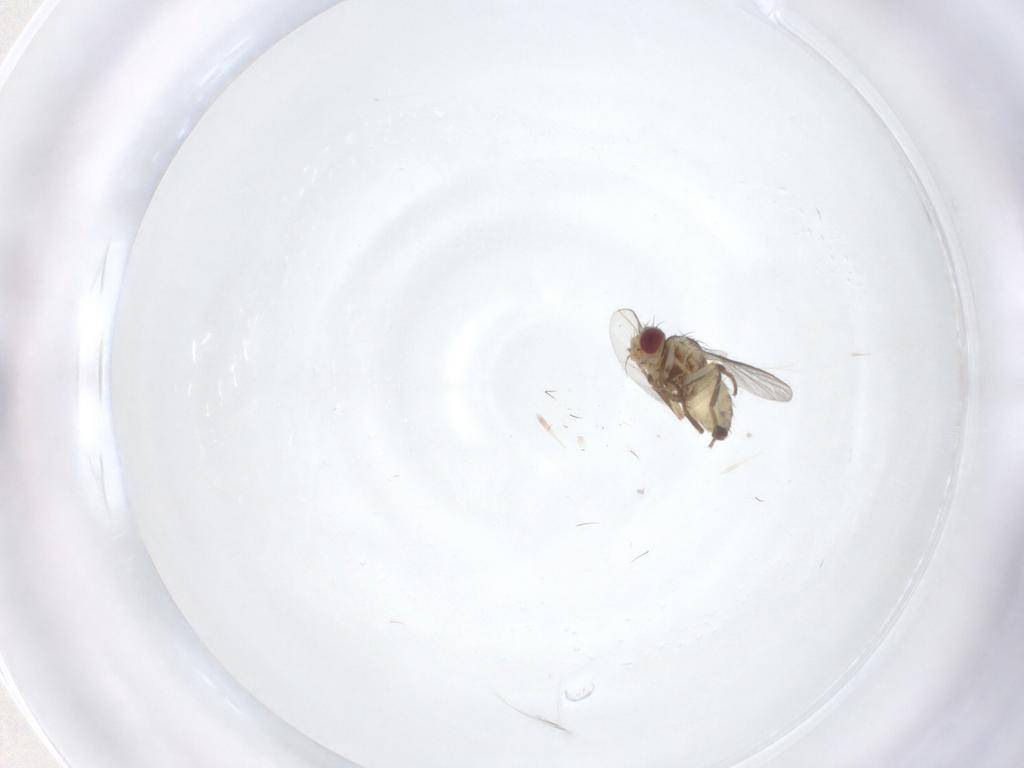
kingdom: Animalia
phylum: Arthropoda
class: Insecta
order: Diptera
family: Agromyzidae
